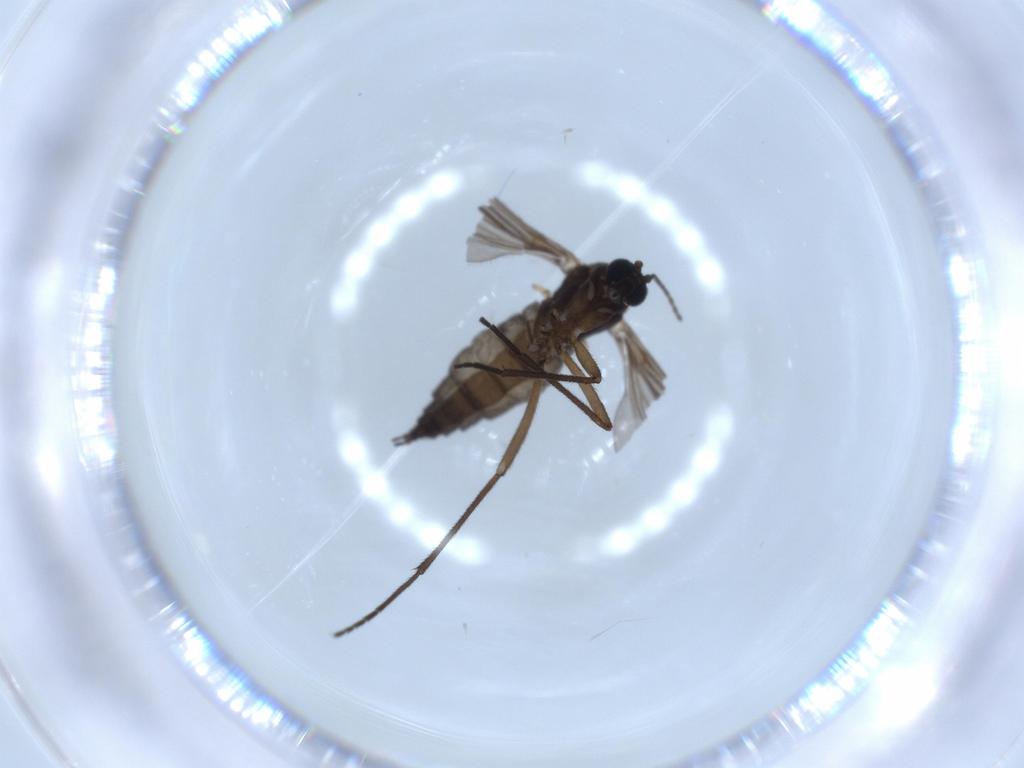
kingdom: Animalia
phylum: Arthropoda
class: Insecta
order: Diptera
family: Sciaridae
